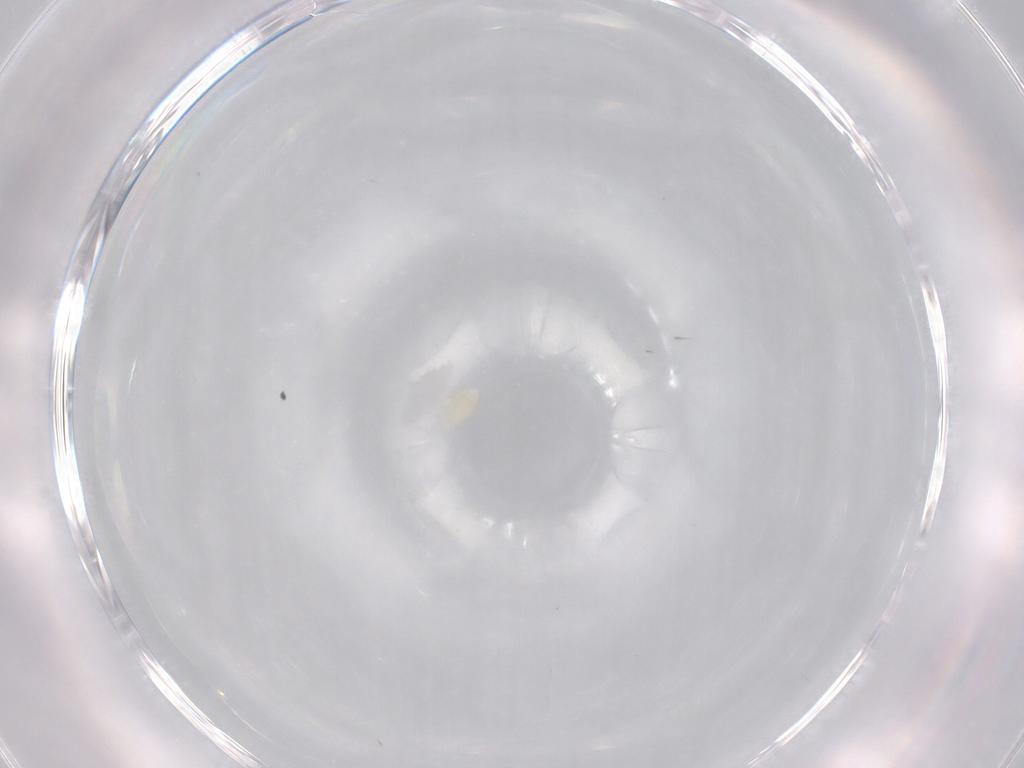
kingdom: Animalia
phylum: Arthropoda
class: Arachnida
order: Trombidiformes
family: Eupodidae
